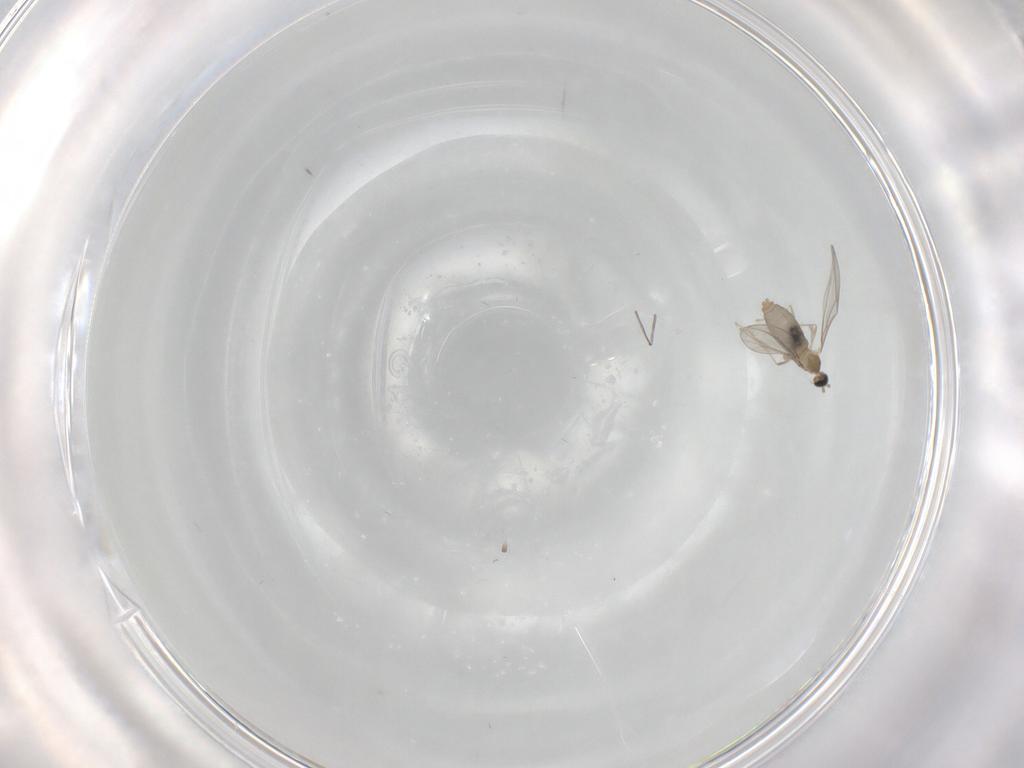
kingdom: Animalia
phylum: Arthropoda
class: Insecta
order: Diptera
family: Cecidomyiidae
